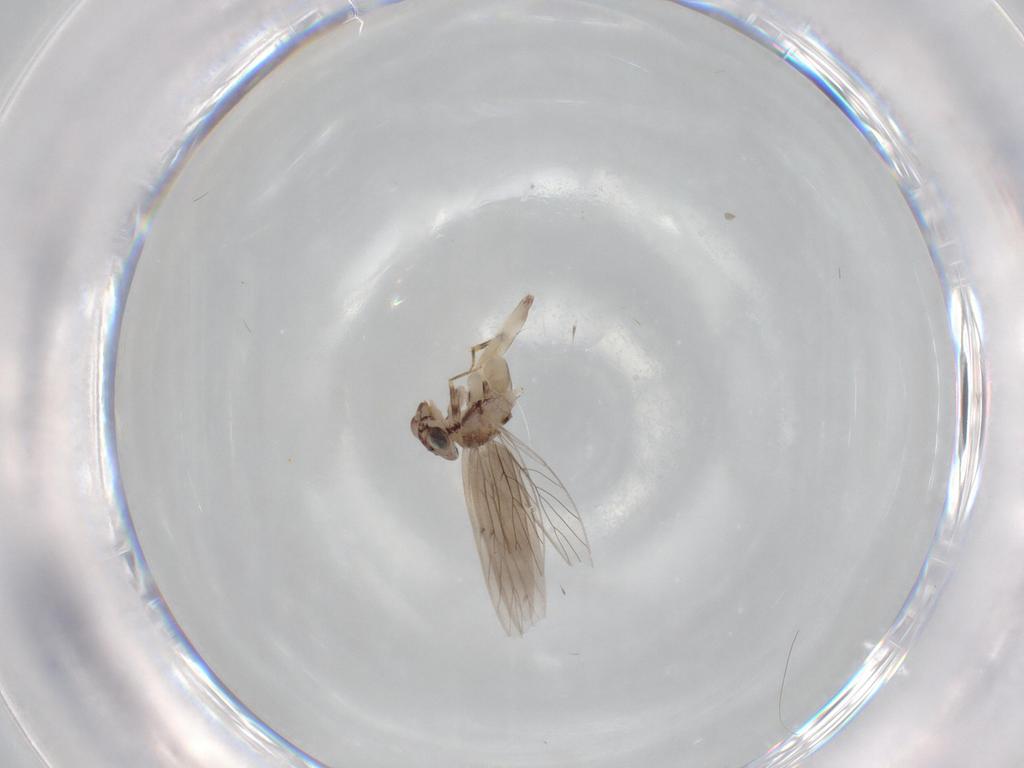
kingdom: Animalia
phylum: Arthropoda
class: Insecta
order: Psocodea
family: Lepidopsocidae
